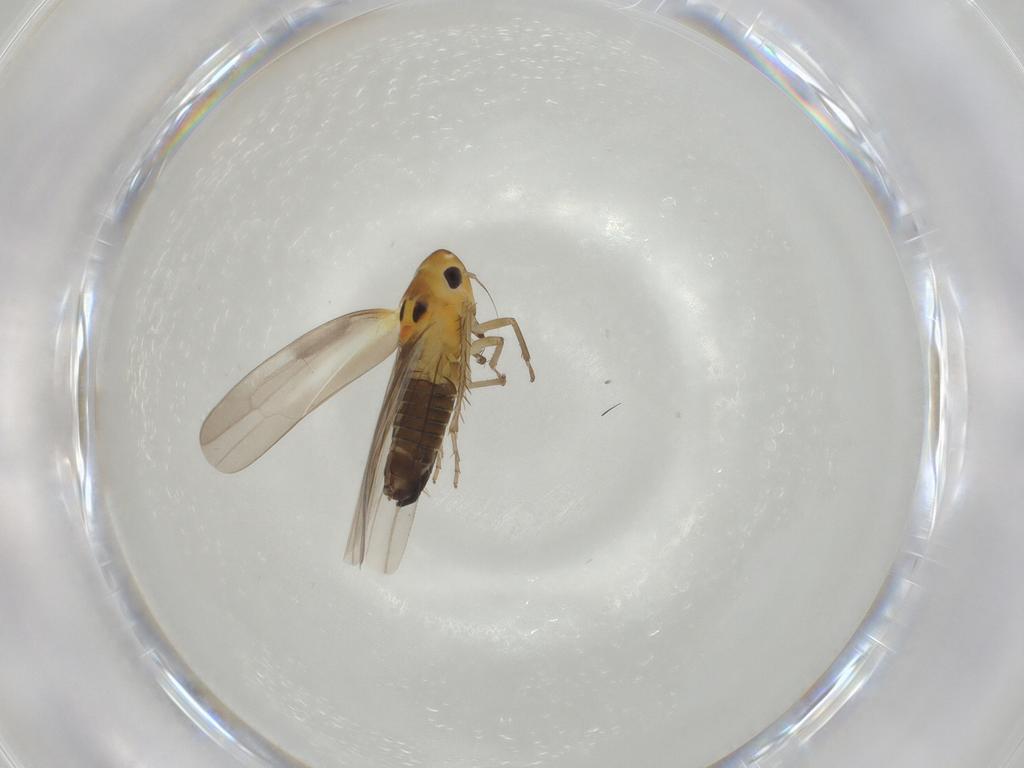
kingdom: Animalia
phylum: Arthropoda
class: Insecta
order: Hemiptera
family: Cicadellidae
